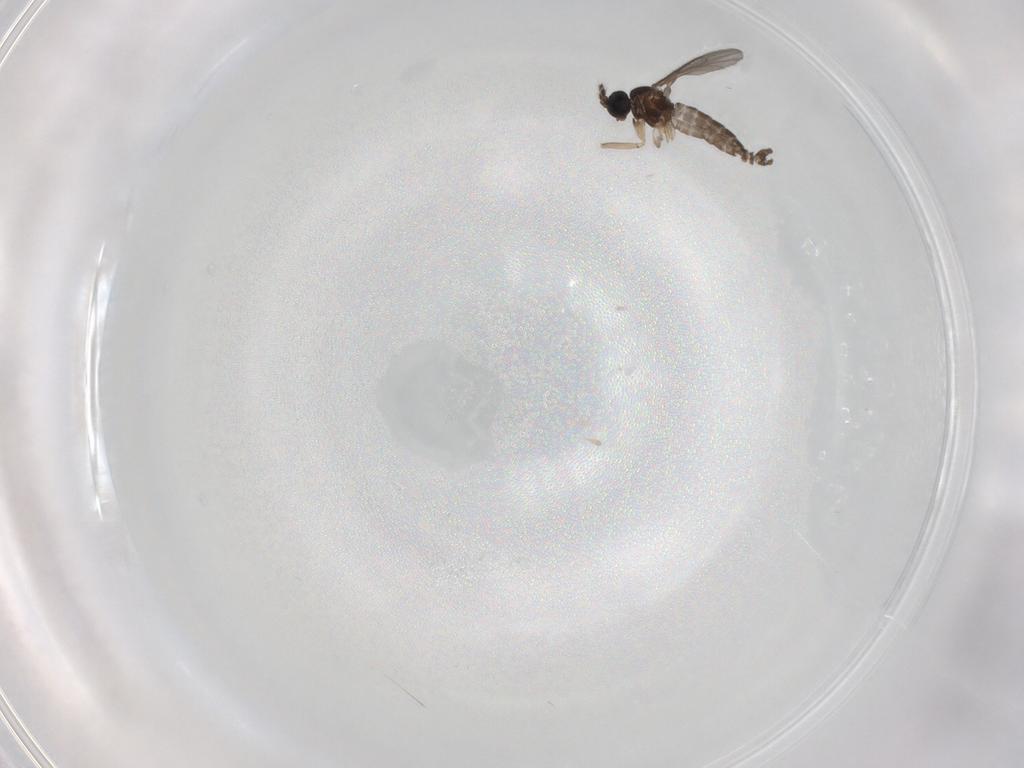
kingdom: Animalia
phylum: Arthropoda
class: Insecta
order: Diptera
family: Sciaridae
